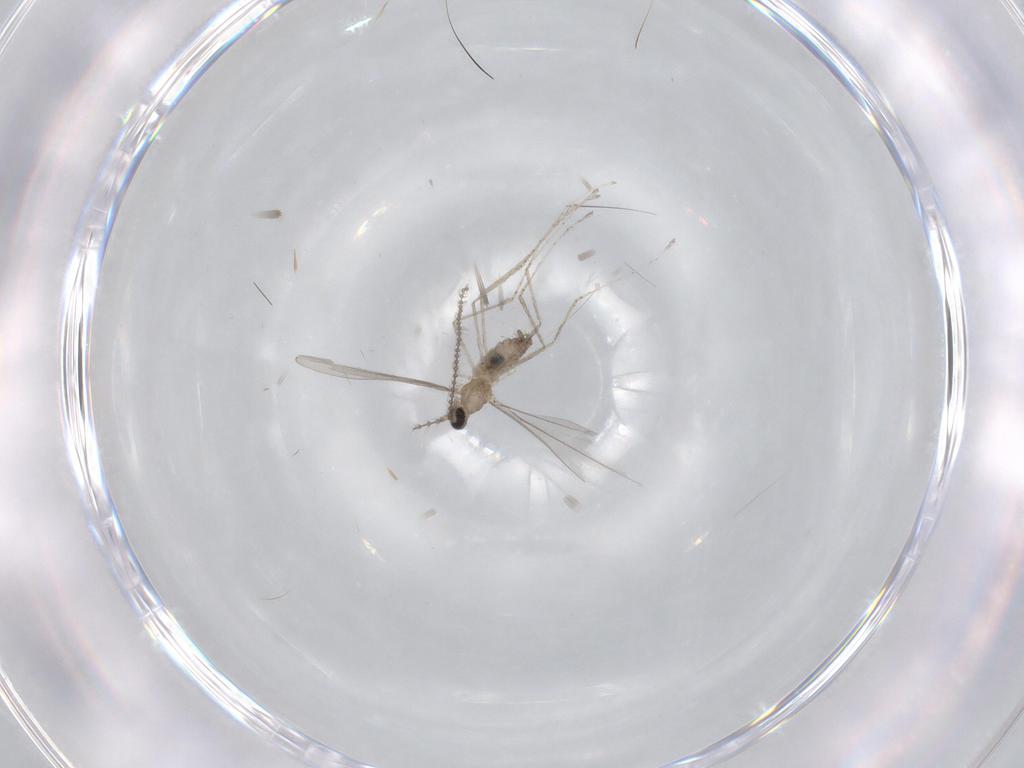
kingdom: Animalia
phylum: Arthropoda
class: Insecta
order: Diptera
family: Cecidomyiidae
